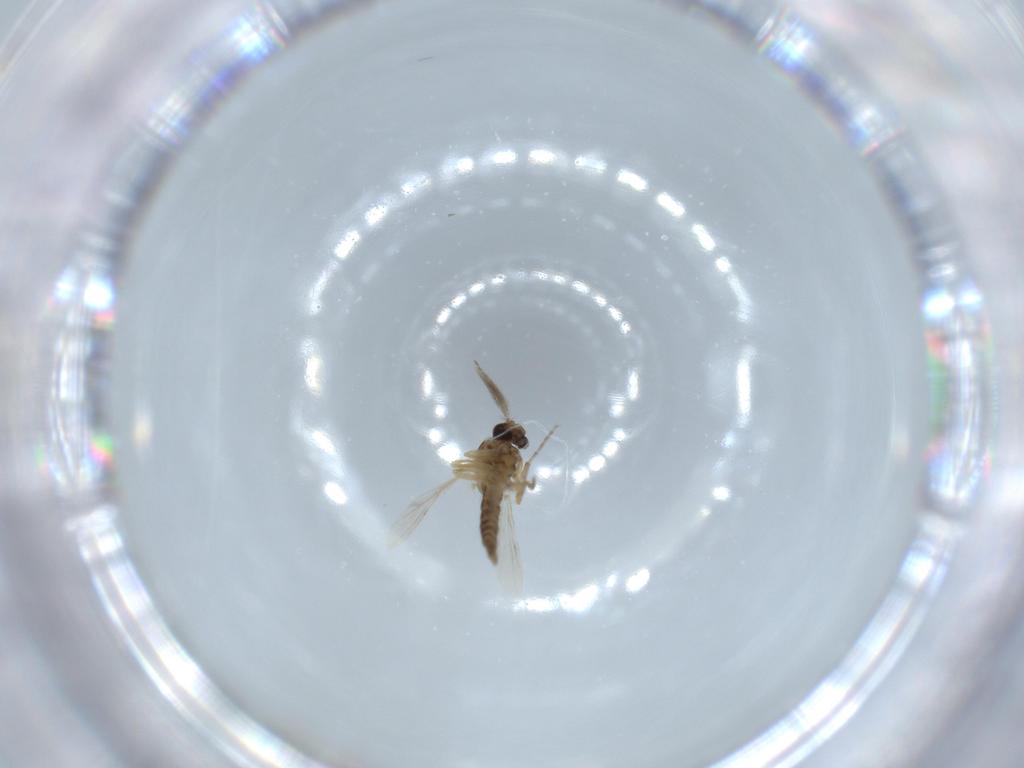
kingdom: Animalia
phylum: Arthropoda
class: Insecta
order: Diptera
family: Ceratopogonidae
